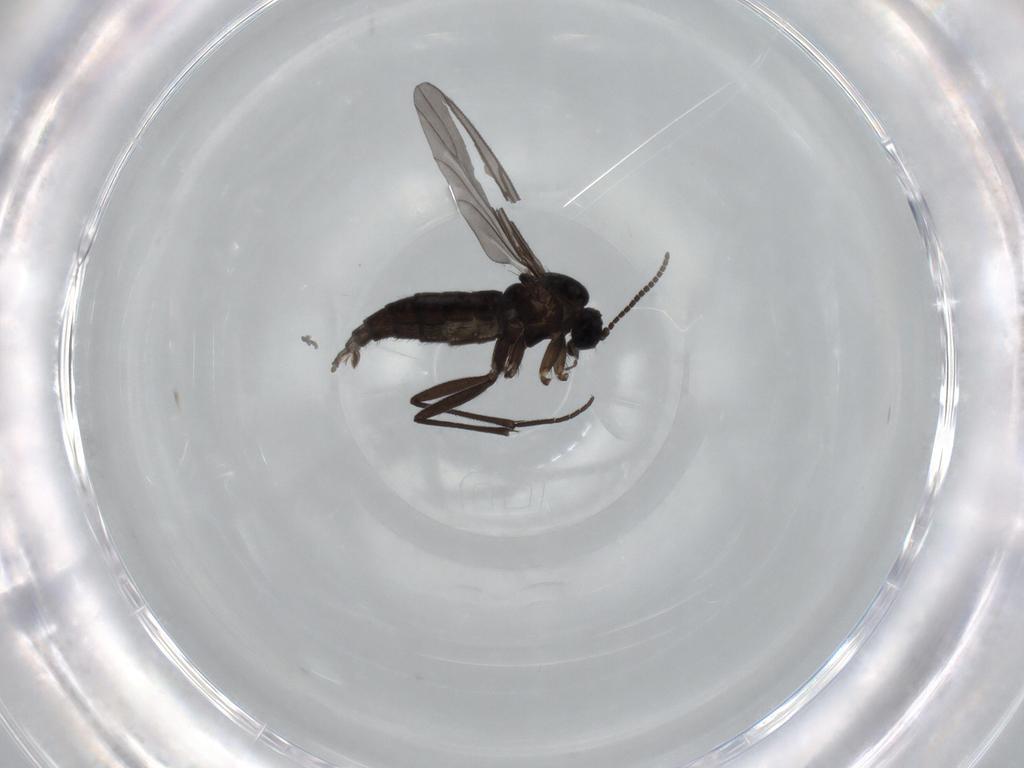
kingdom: Animalia
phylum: Arthropoda
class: Insecta
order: Diptera
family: Sciaridae
